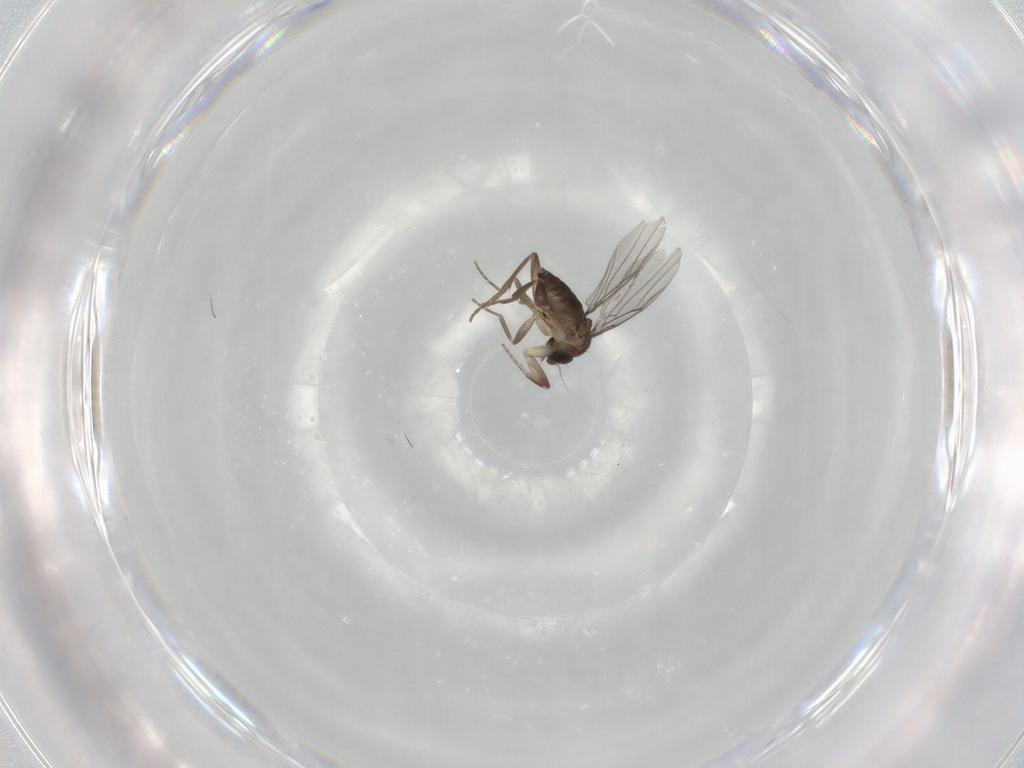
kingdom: Animalia
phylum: Arthropoda
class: Insecta
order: Diptera
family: Phoridae
